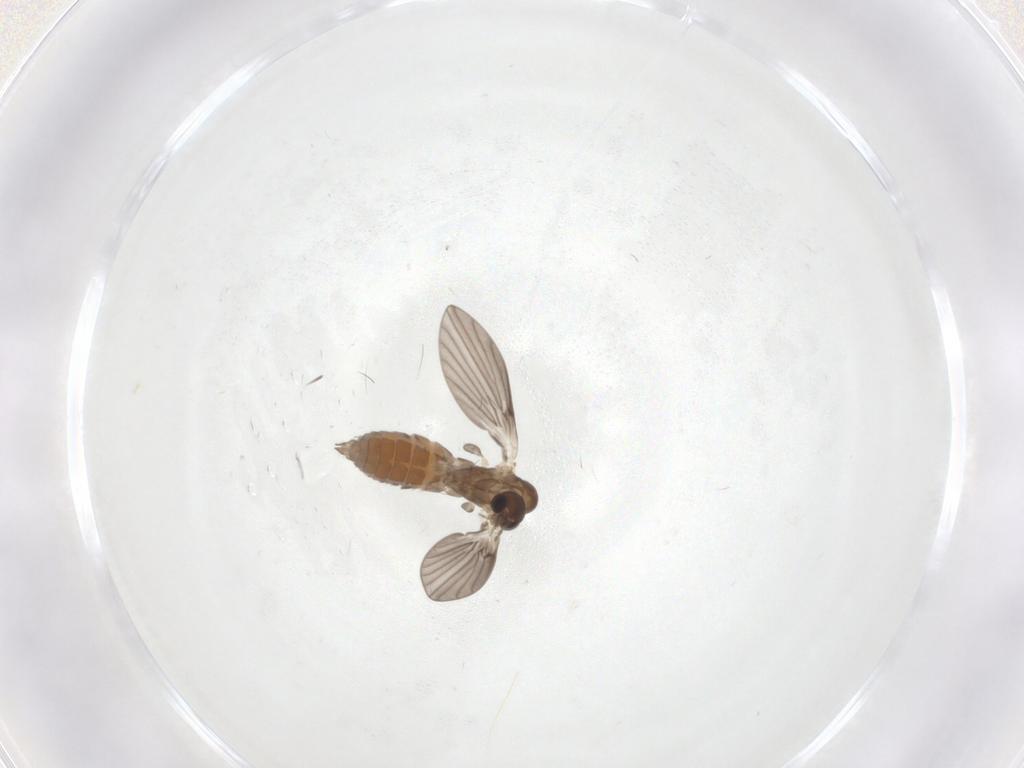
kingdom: Animalia
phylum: Arthropoda
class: Insecta
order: Diptera
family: Psychodidae
